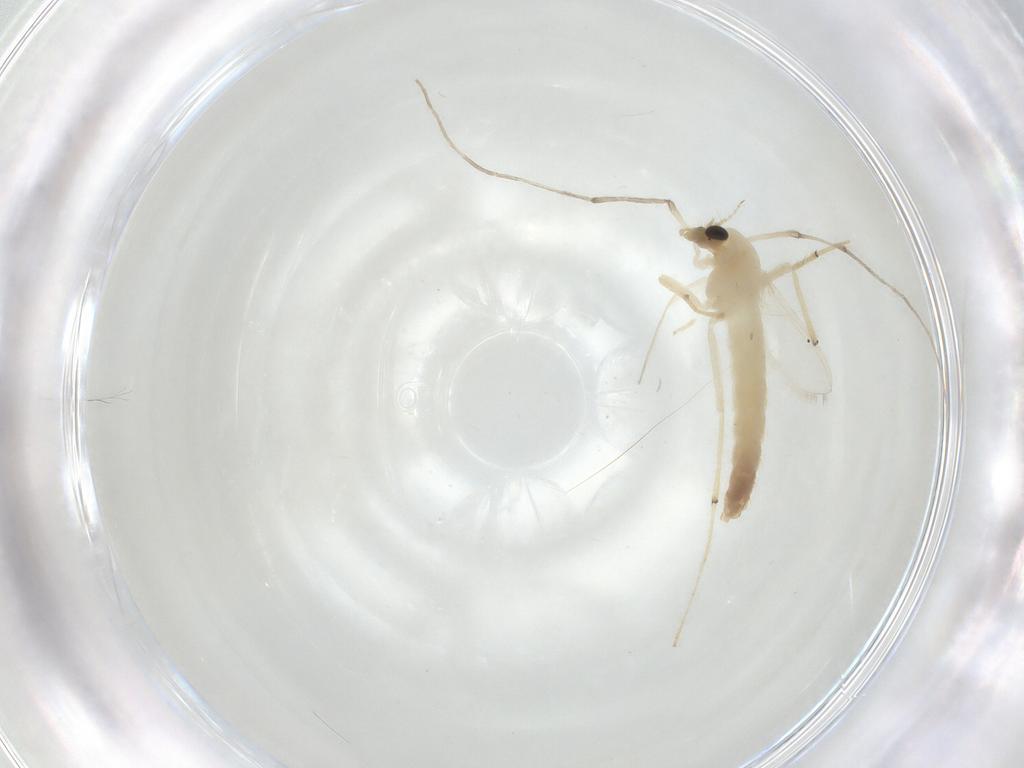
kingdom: Animalia
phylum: Arthropoda
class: Insecta
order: Diptera
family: Chironomidae
